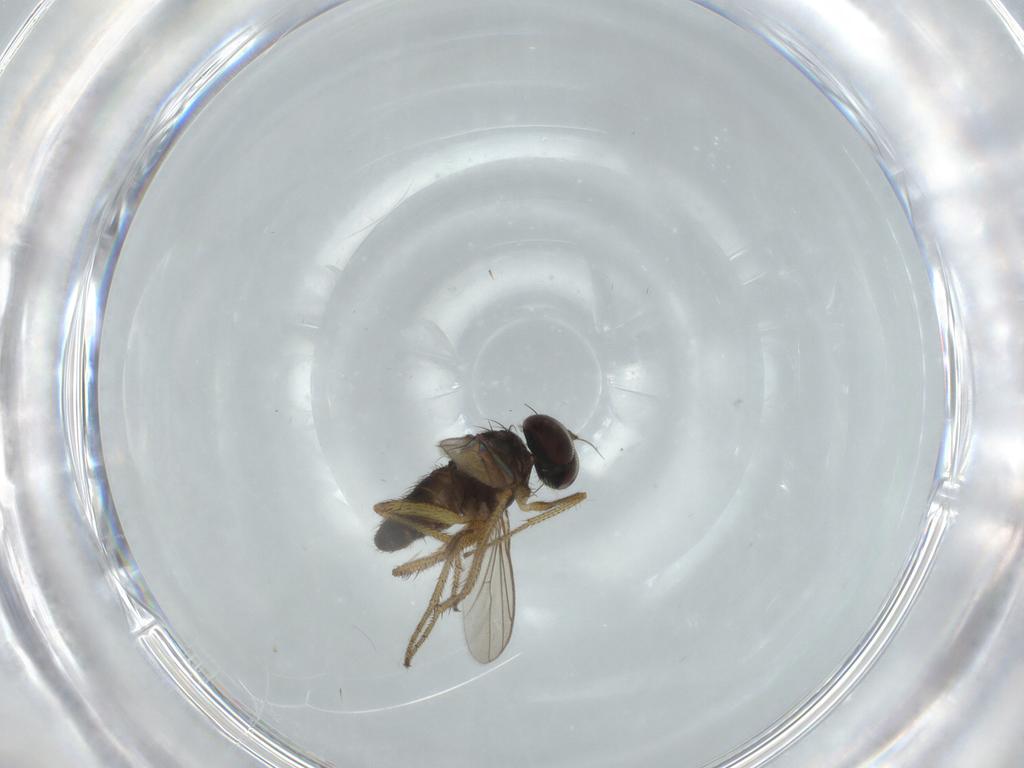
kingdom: Animalia
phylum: Arthropoda
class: Insecta
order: Diptera
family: Dolichopodidae
